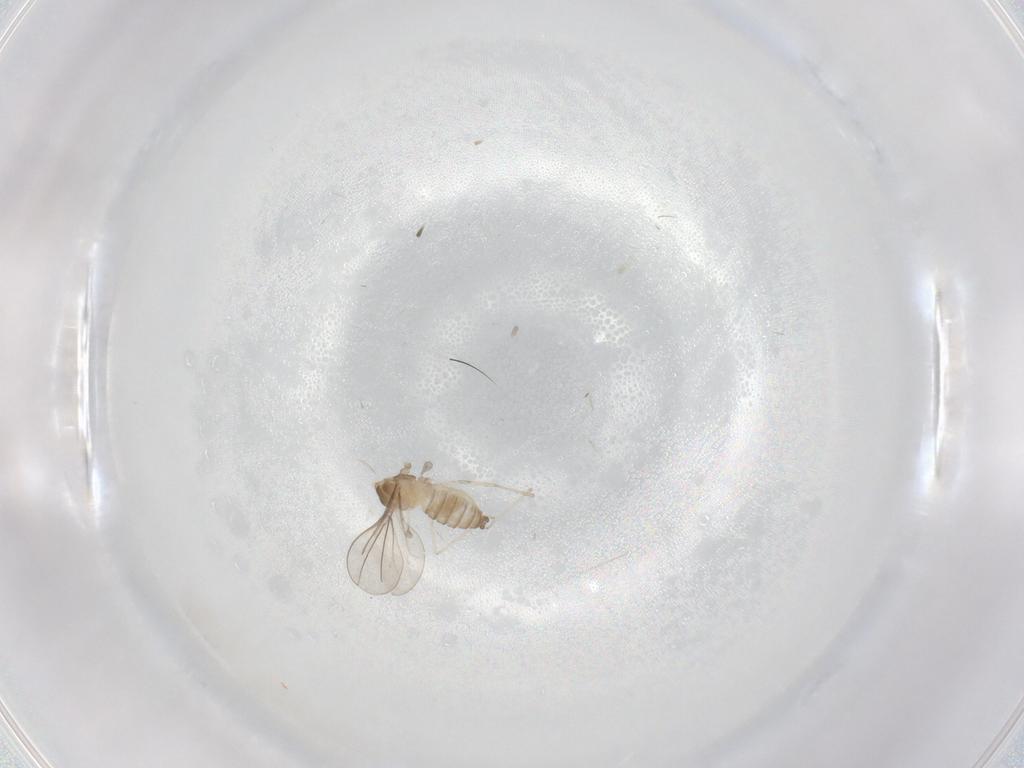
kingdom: Animalia
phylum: Arthropoda
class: Insecta
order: Diptera
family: Cecidomyiidae
